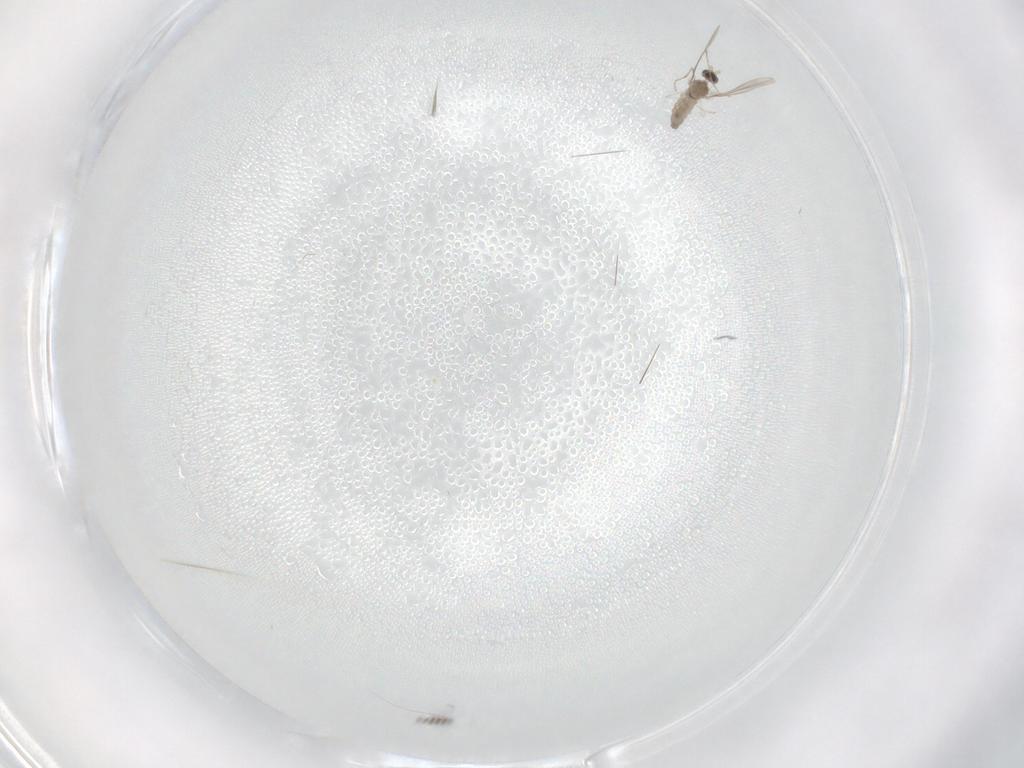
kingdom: Animalia
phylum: Arthropoda
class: Insecta
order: Diptera
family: Cecidomyiidae
